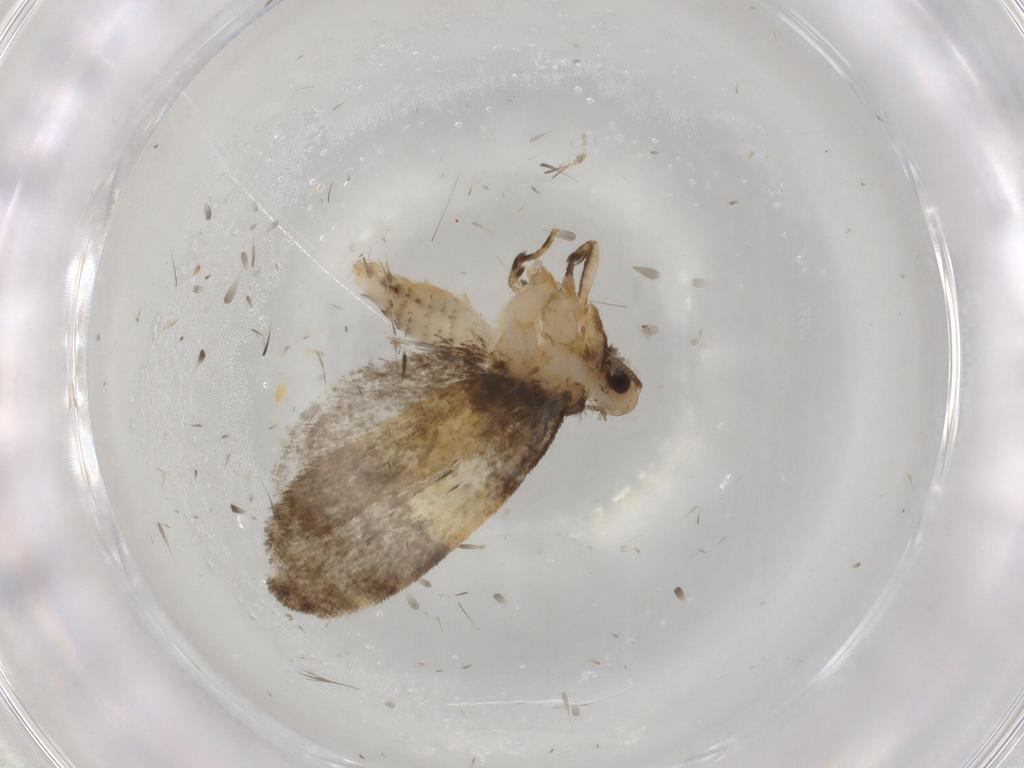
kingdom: Animalia
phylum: Arthropoda
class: Insecta
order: Lepidoptera
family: Psychidae
